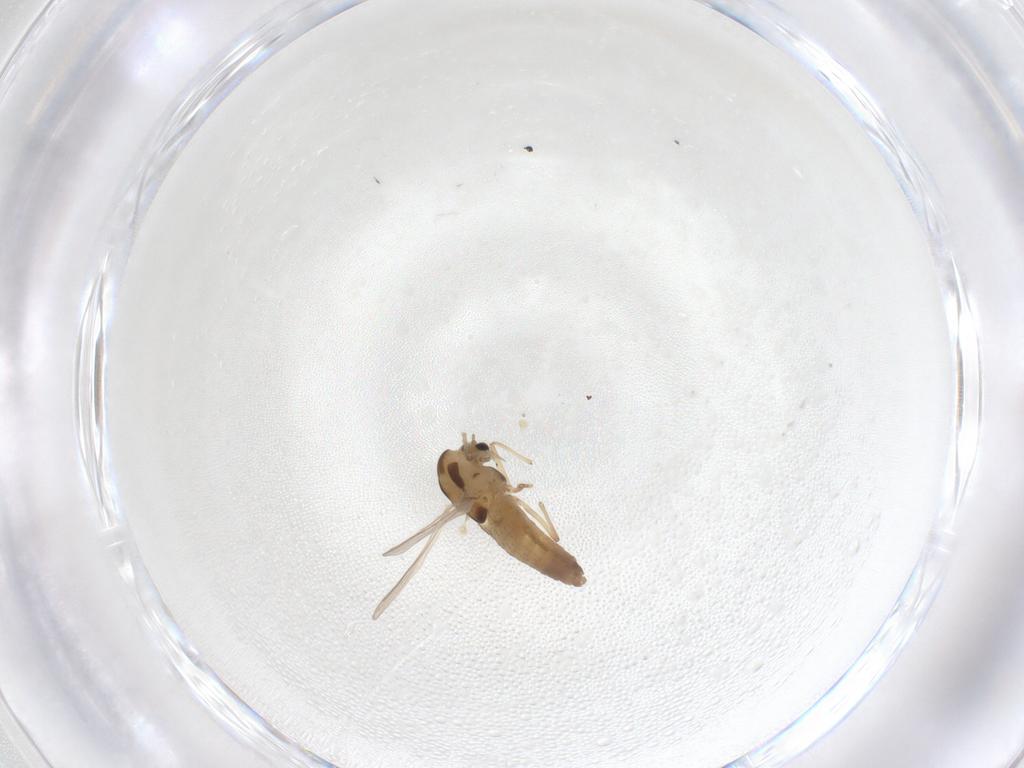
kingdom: Animalia
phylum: Arthropoda
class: Insecta
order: Diptera
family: Chironomidae
